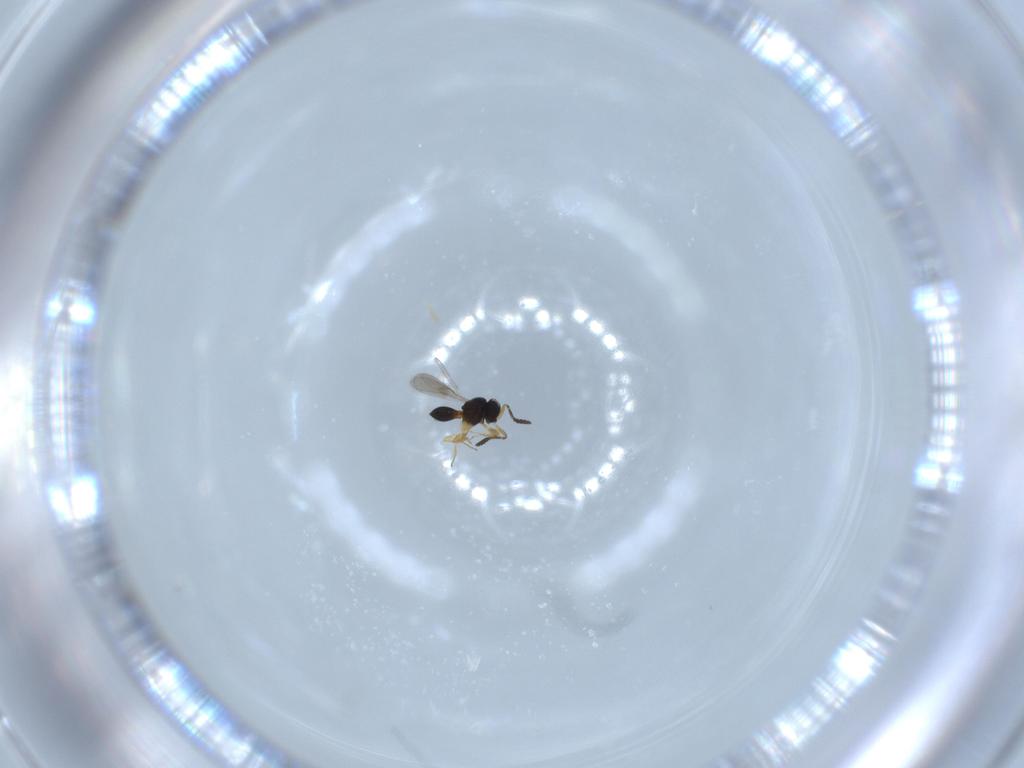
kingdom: Animalia
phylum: Arthropoda
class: Insecta
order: Hymenoptera
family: Scelionidae
